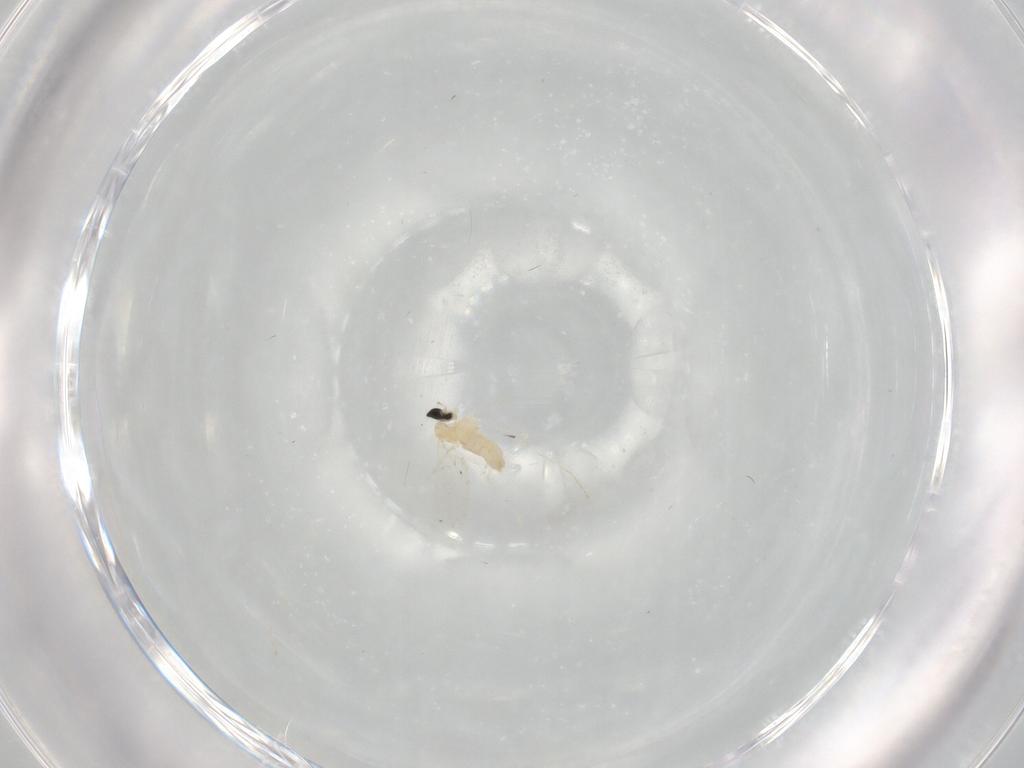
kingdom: Animalia
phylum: Arthropoda
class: Insecta
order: Diptera
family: Cecidomyiidae
